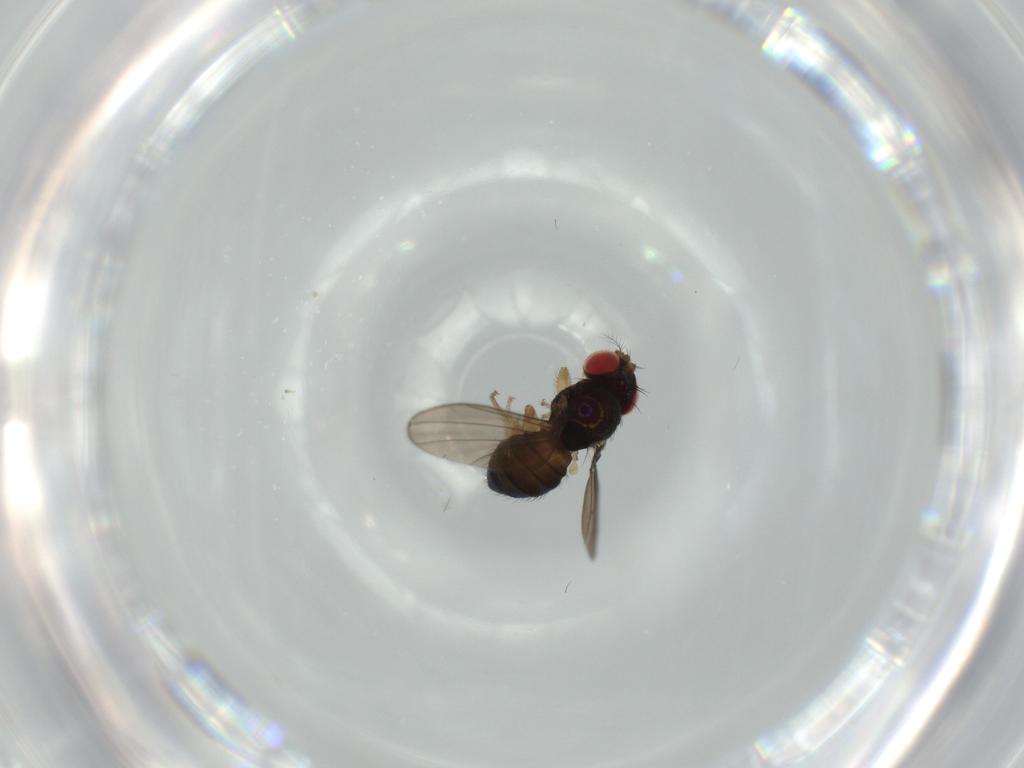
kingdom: Animalia
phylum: Arthropoda
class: Insecta
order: Diptera
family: Drosophilidae
